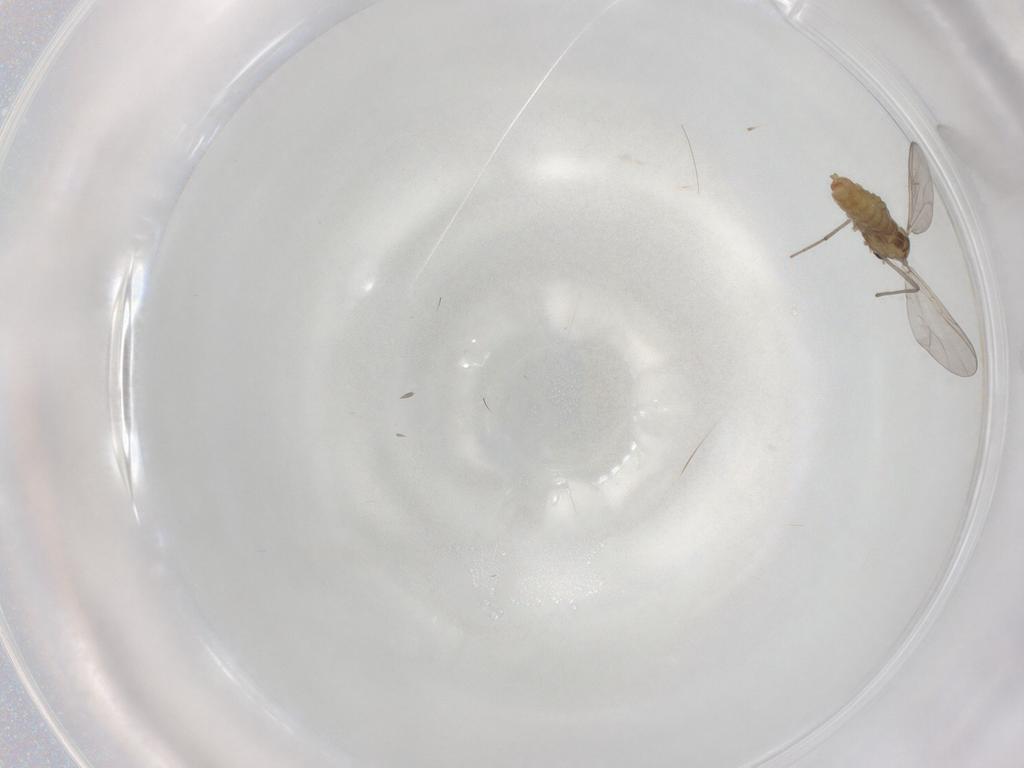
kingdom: Animalia
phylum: Arthropoda
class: Insecta
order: Diptera
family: Chironomidae
